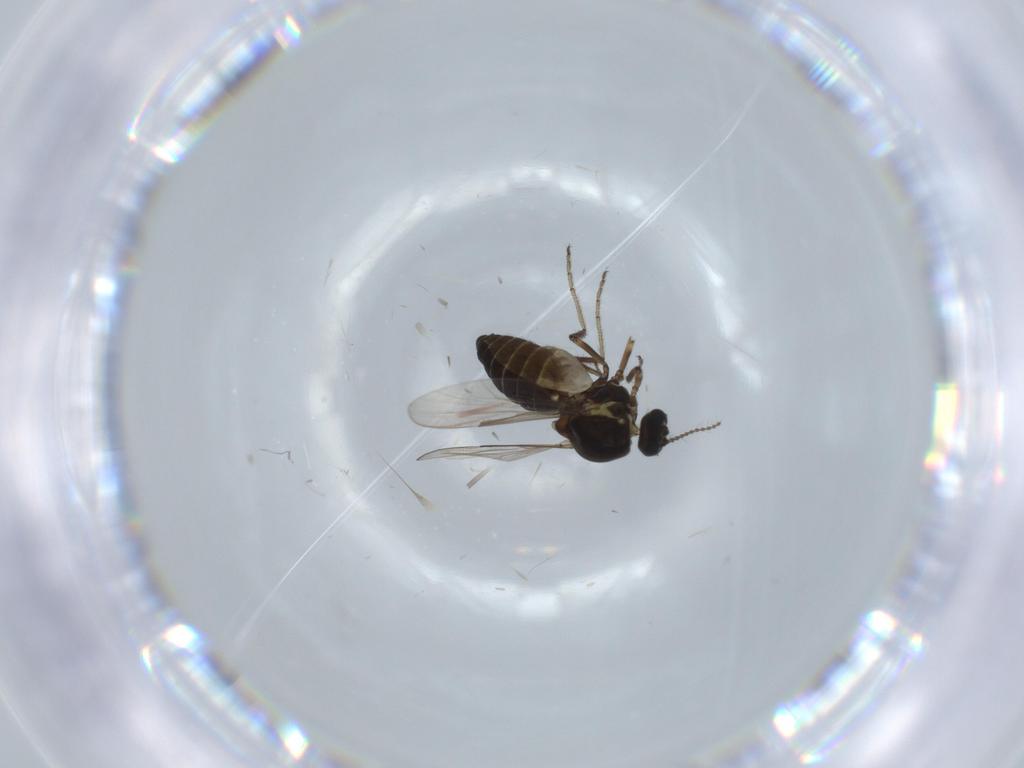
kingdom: Animalia
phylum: Arthropoda
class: Insecta
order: Diptera
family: Ceratopogonidae
